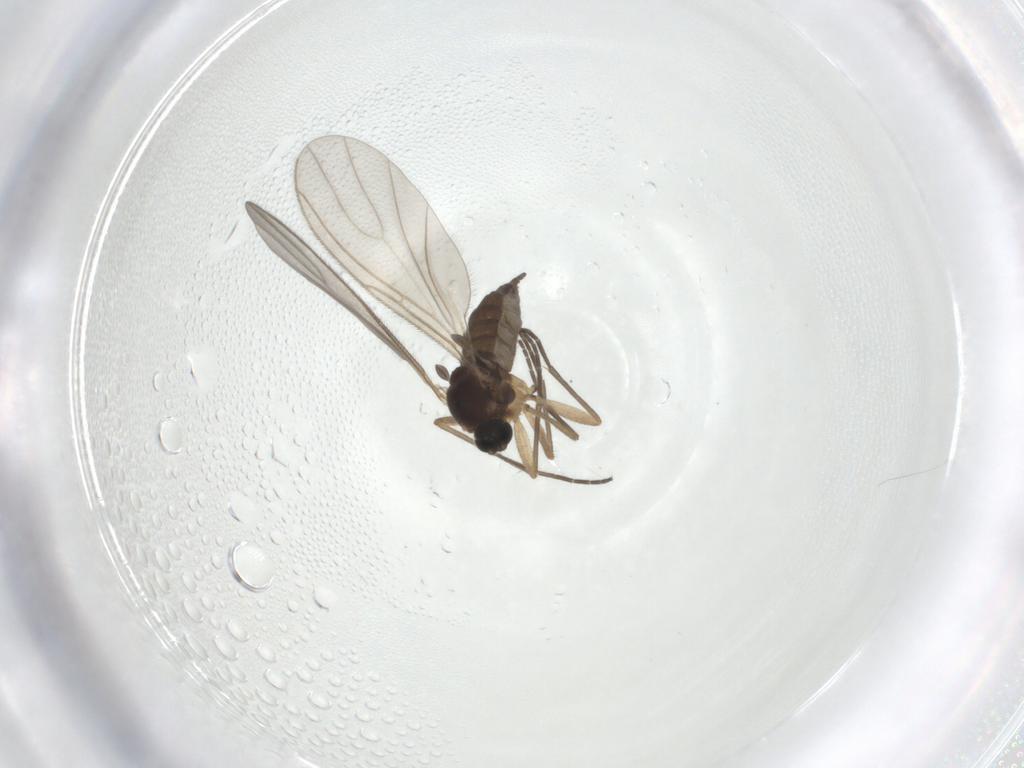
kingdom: Animalia
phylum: Arthropoda
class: Insecta
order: Diptera
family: Sciaridae
